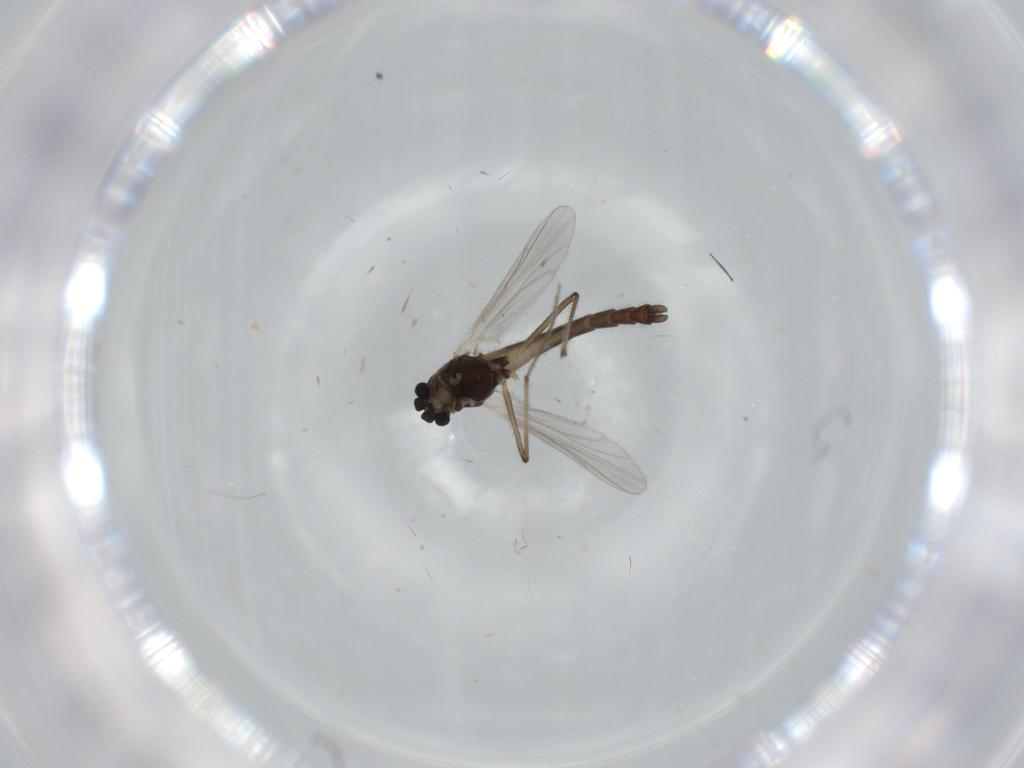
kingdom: Animalia
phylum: Arthropoda
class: Insecta
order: Diptera
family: Chironomidae
